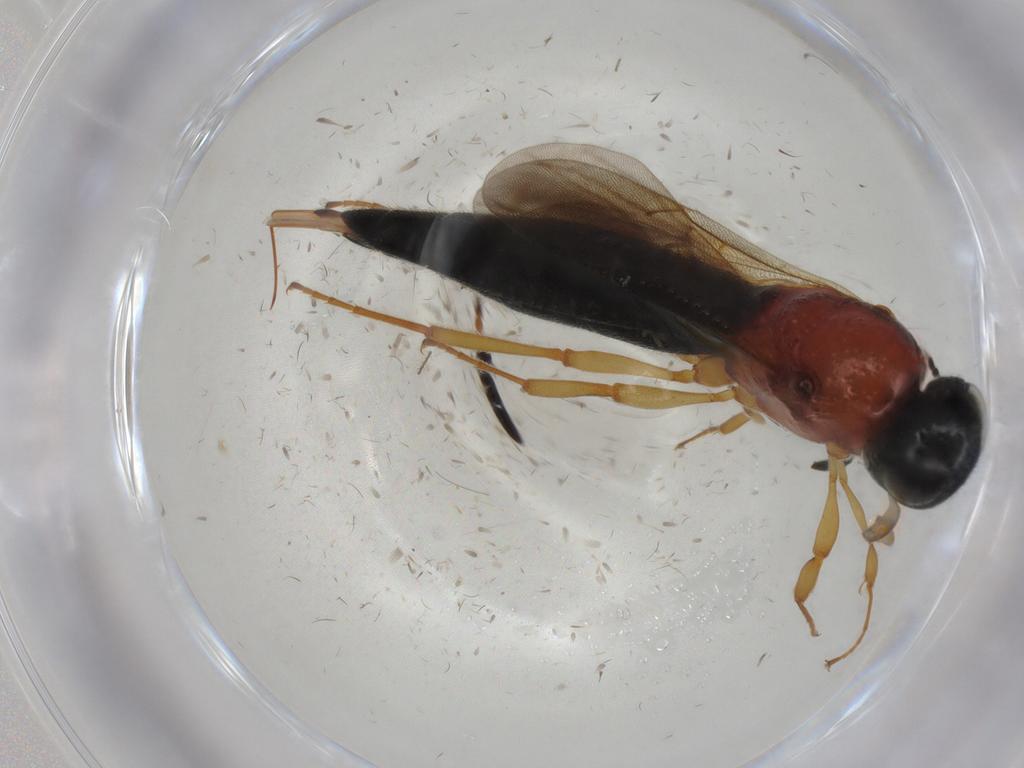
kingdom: Animalia
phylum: Arthropoda
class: Insecta
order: Hymenoptera
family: Scelionidae
